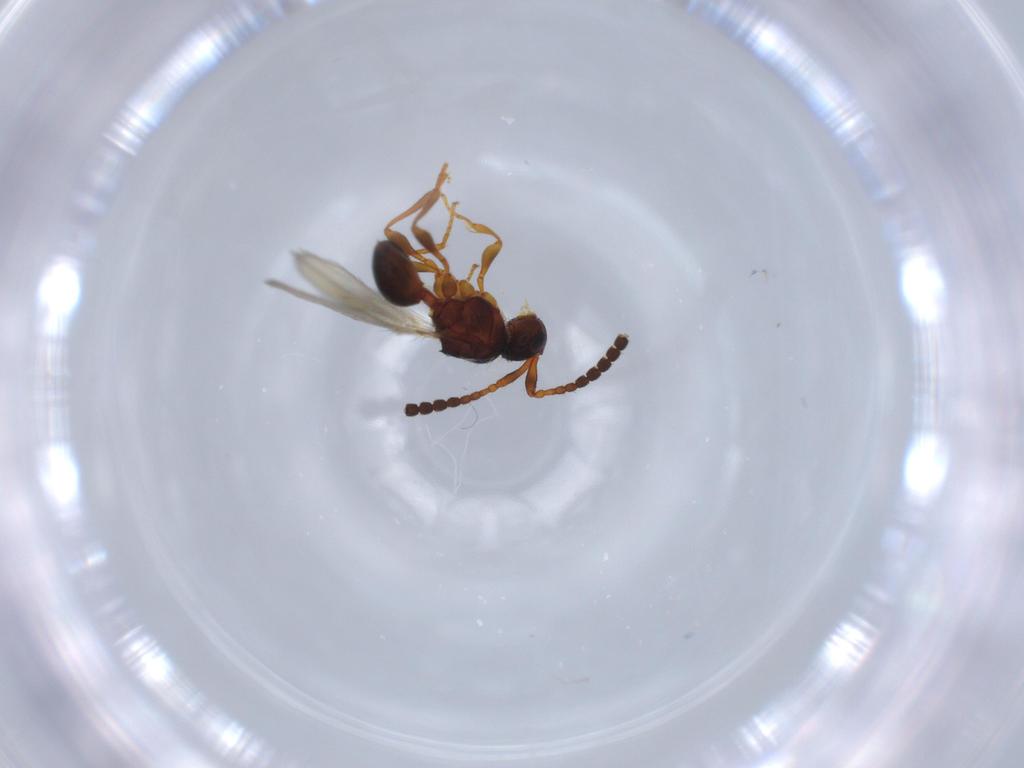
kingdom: Animalia
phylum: Arthropoda
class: Insecta
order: Hymenoptera
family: Diapriidae
